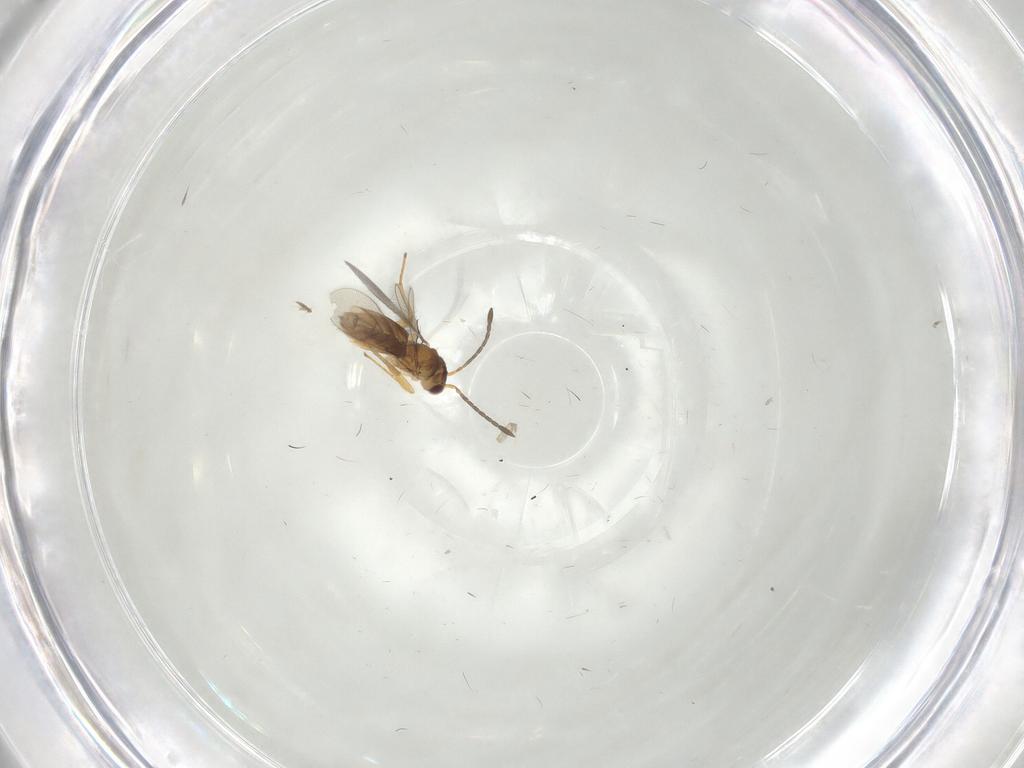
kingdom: Animalia
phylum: Arthropoda
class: Insecta
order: Hymenoptera
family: Mymaridae
